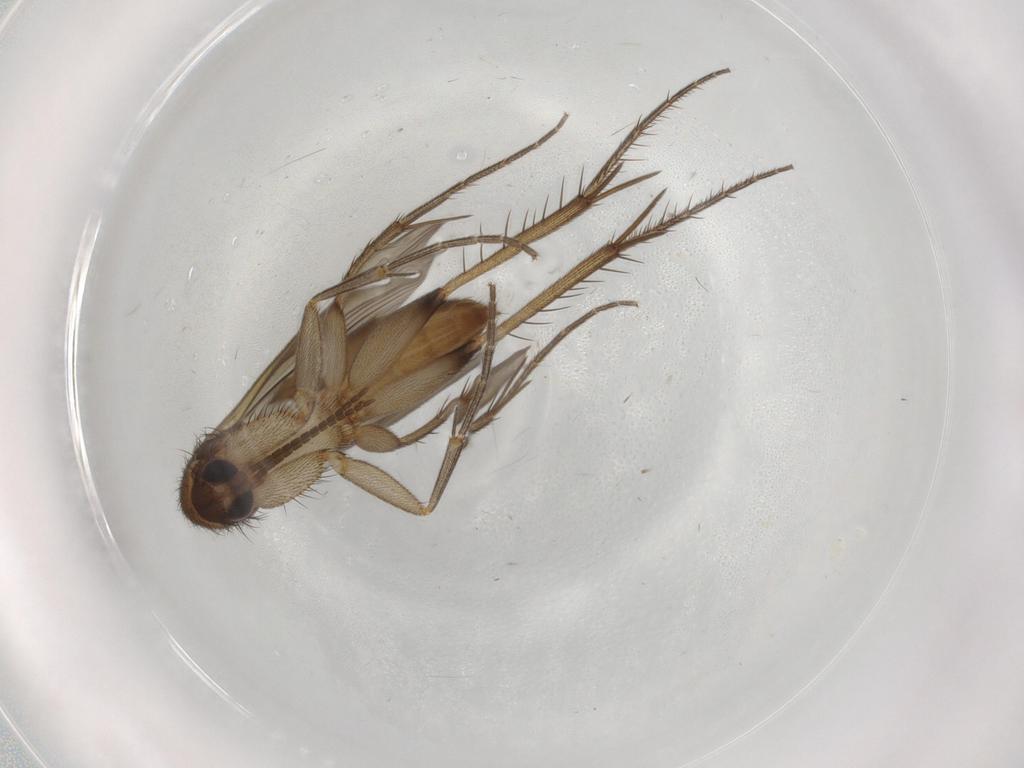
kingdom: Animalia
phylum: Arthropoda
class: Insecta
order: Diptera
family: Mycetophilidae
